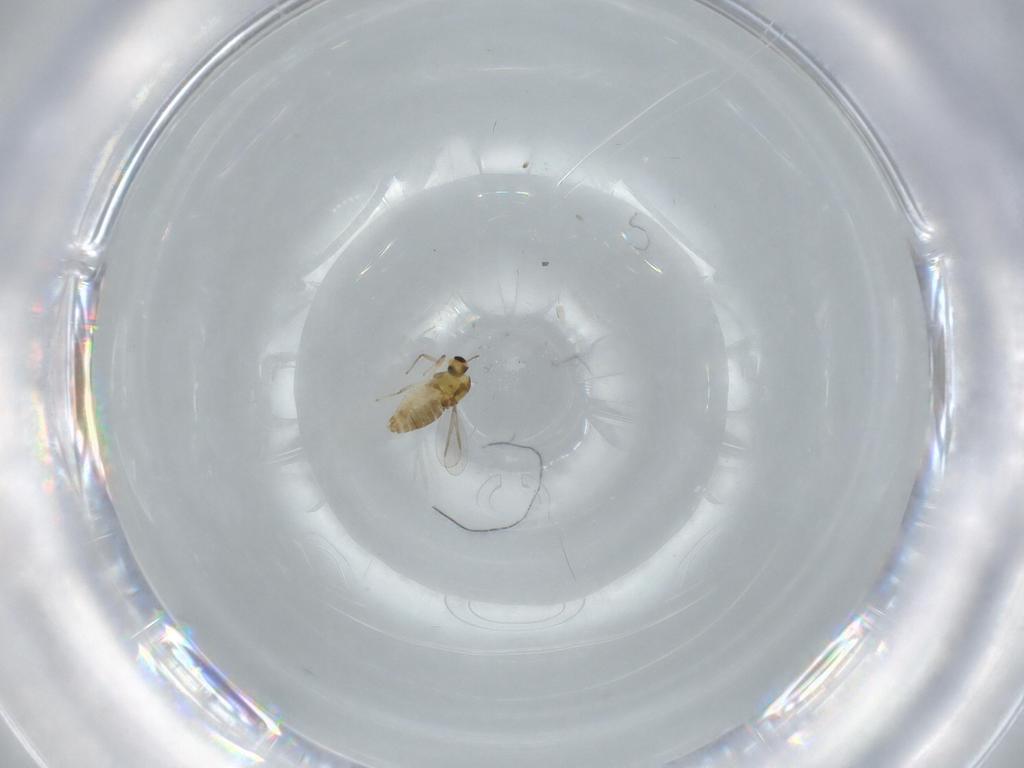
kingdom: Animalia
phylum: Arthropoda
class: Insecta
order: Diptera
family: Chironomidae
